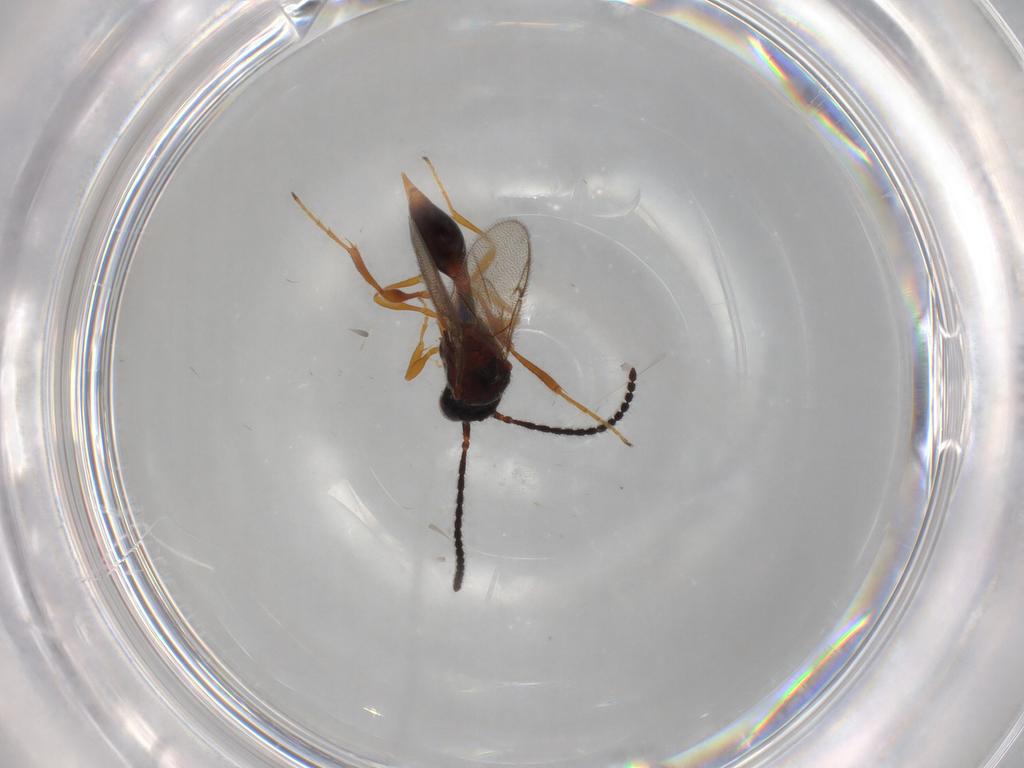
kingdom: Animalia
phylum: Arthropoda
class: Insecta
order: Hymenoptera
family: Diapriidae
